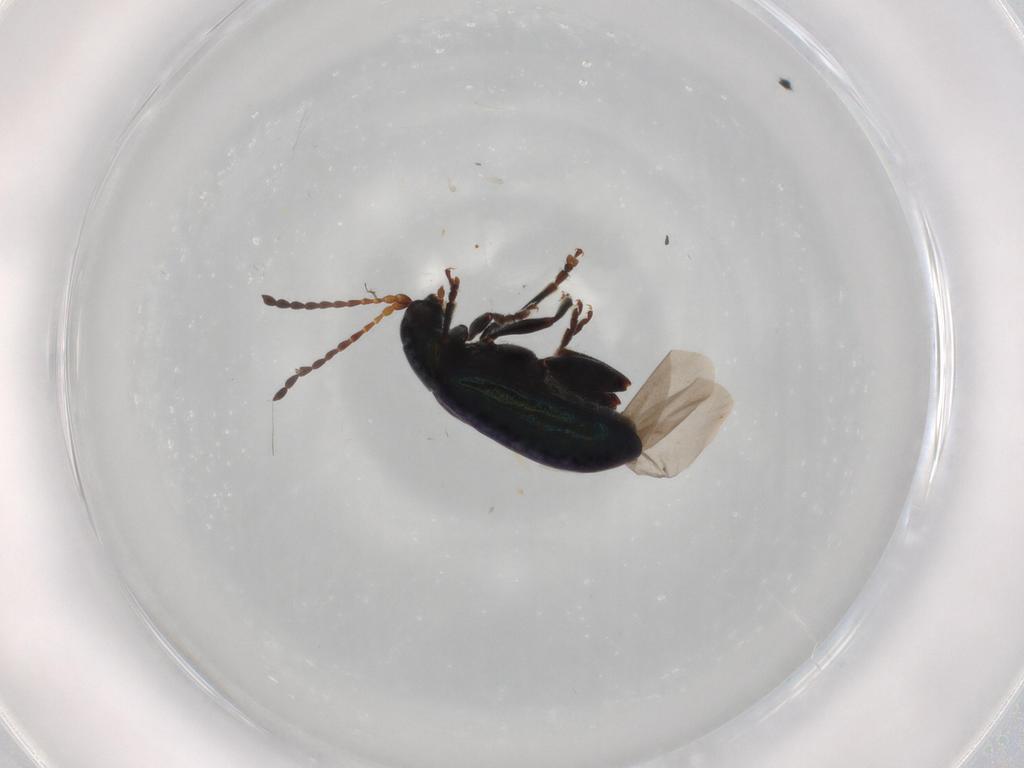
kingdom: Animalia
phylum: Arthropoda
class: Insecta
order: Coleoptera
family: Chrysomelidae
